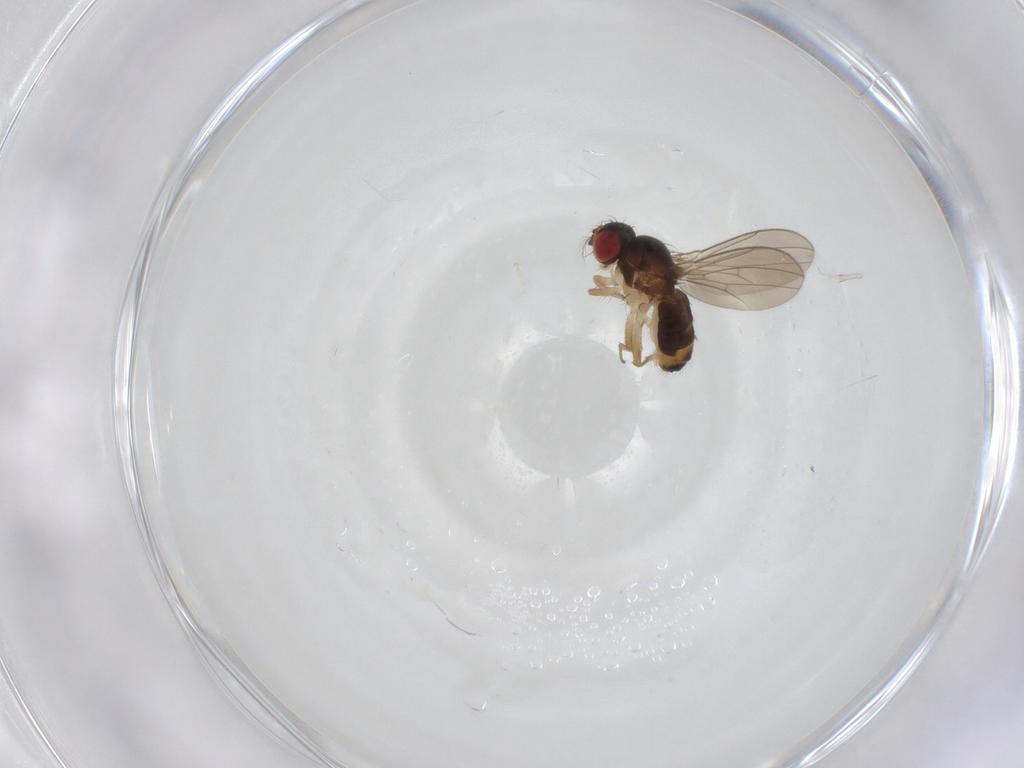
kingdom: Animalia
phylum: Arthropoda
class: Insecta
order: Diptera
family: Drosophilidae
